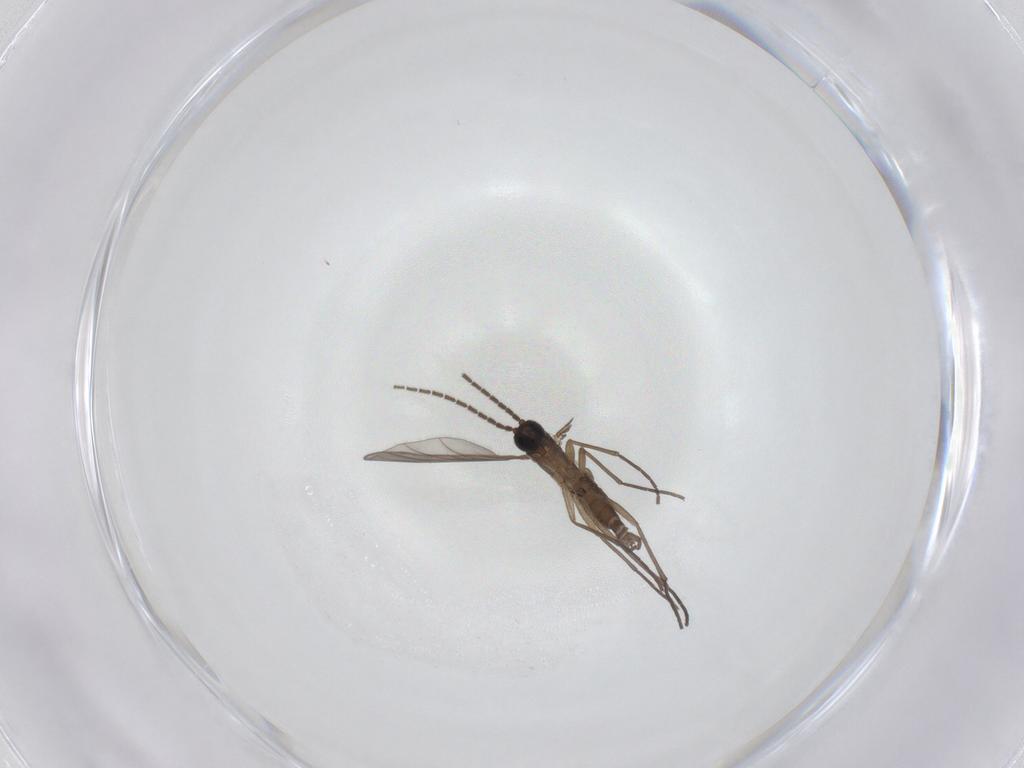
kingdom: Animalia
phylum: Arthropoda
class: Insecta
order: Diptera
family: Sciaridae
